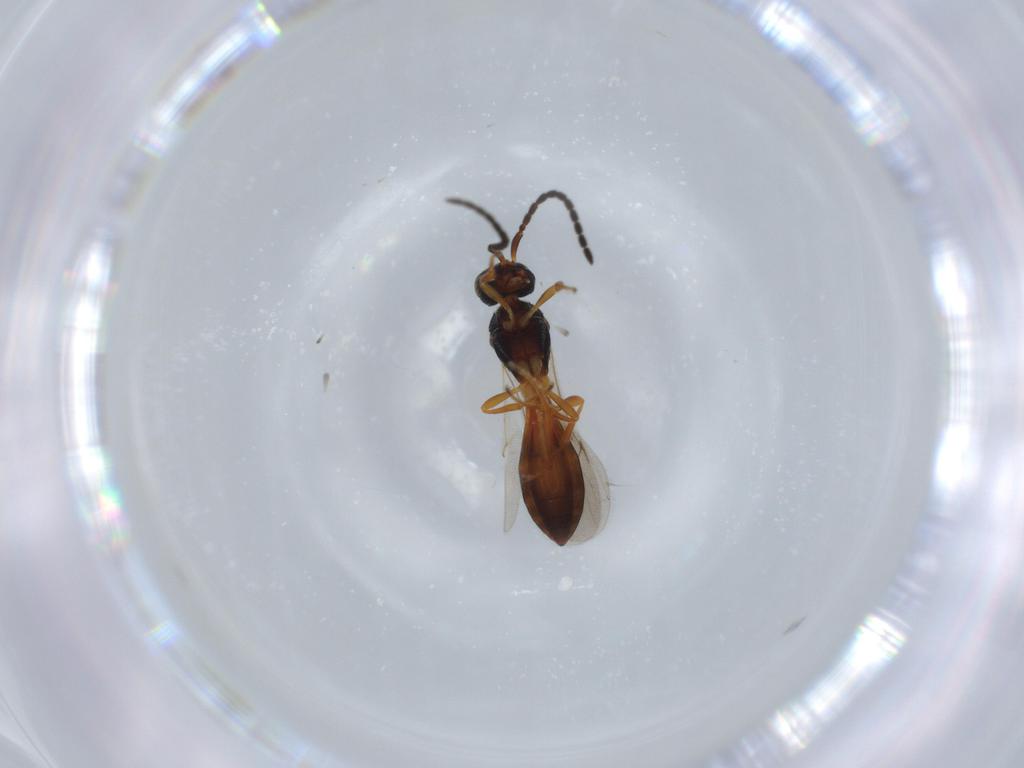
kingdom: Animalia
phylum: Arthropoda
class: Insecta
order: Hymenoptera
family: Scelionidae
